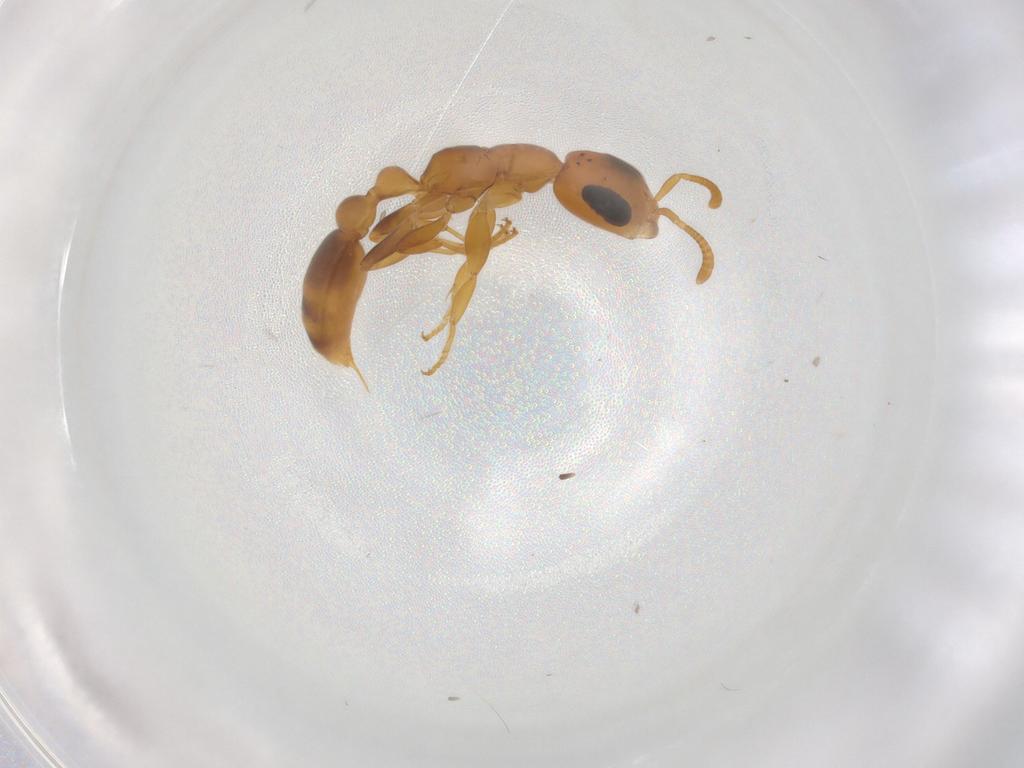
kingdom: Animalia
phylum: Arthropoda
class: Insecta
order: Hymenoptera
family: Formicidae
